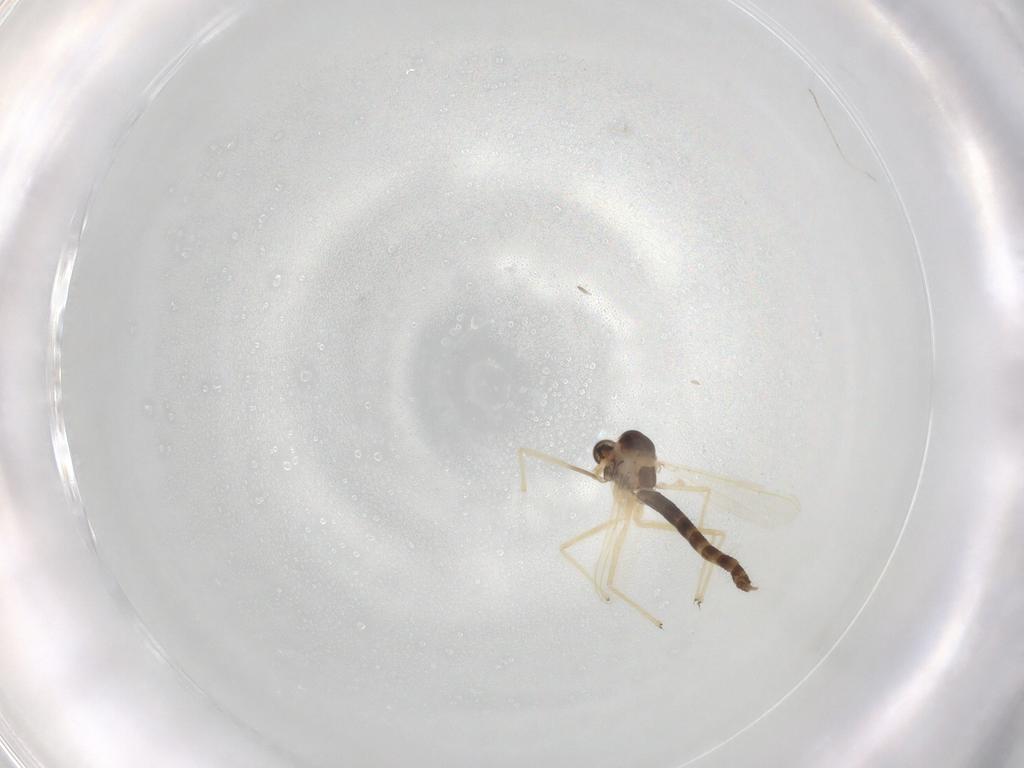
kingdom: Animalia
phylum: Arthropoda
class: Insecta
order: Diptera
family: Chironomidae
